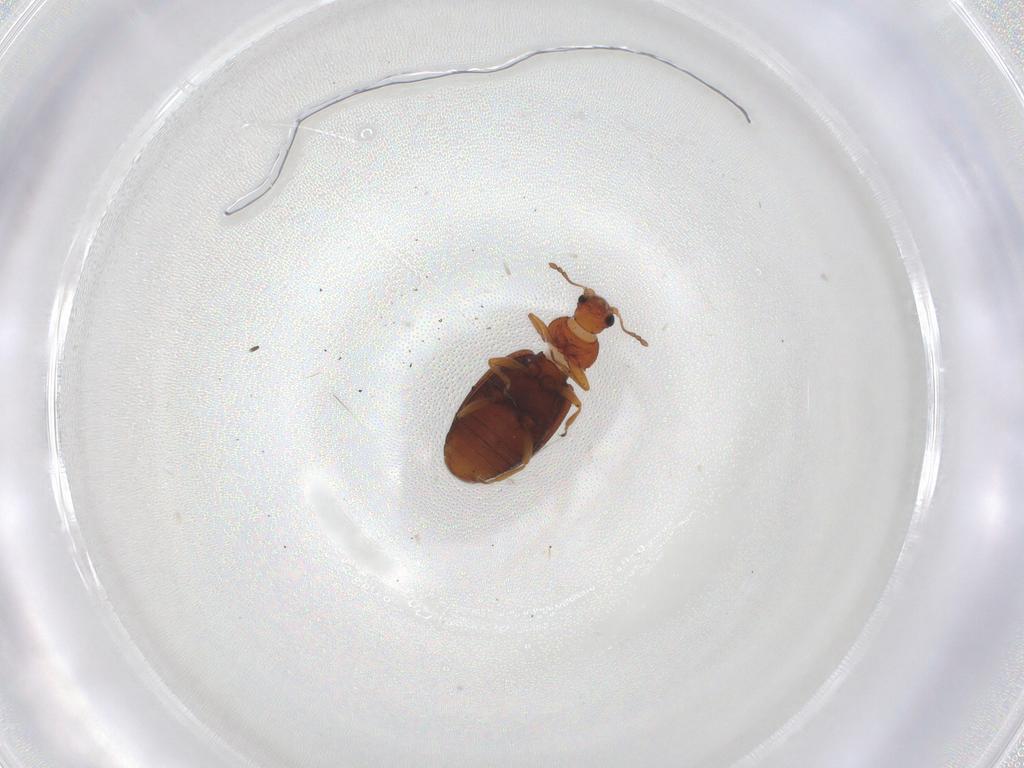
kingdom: Animalia
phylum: Arthropoda
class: Insecta
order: Coleoptera
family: Latridiidae
